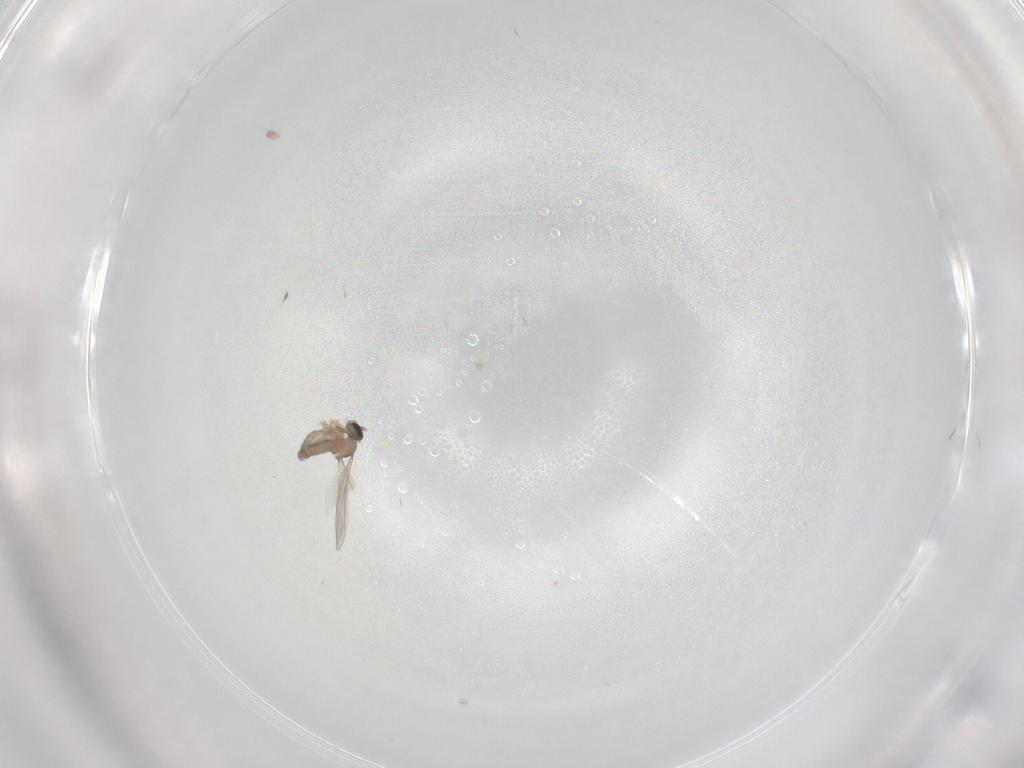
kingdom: Animalia
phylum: Arthropoda
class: Insecta
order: Diptera
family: Cecidomyiidae
